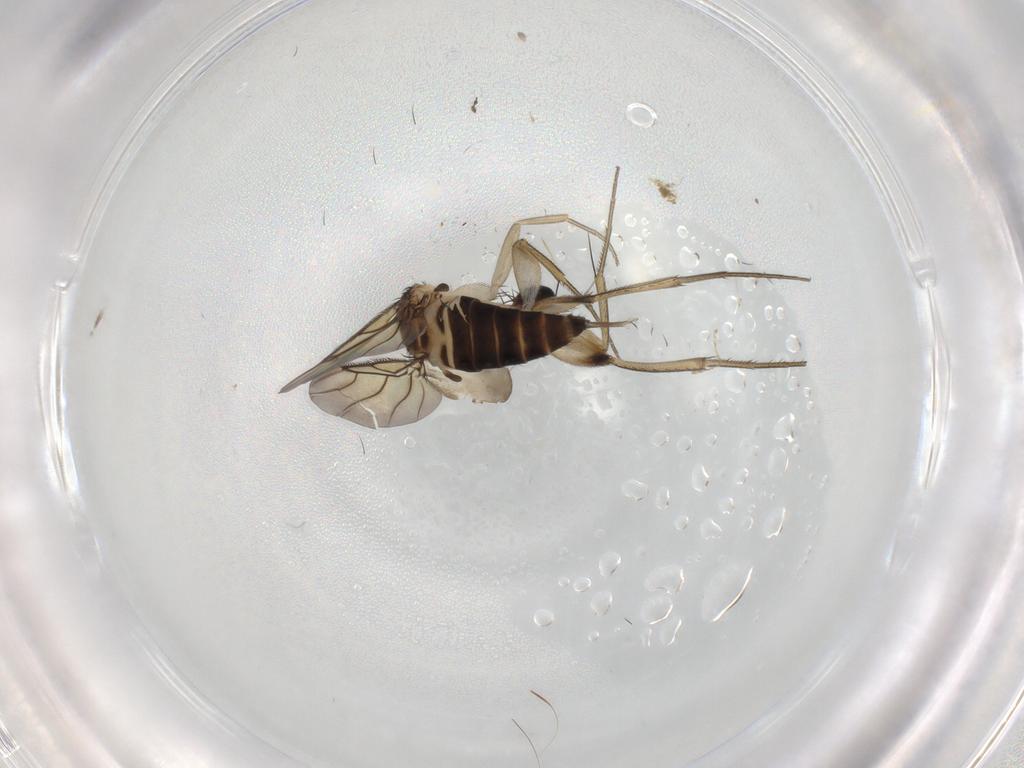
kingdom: Animalia
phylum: Arthropoda
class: Insecta
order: Diptera
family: Phoridae
